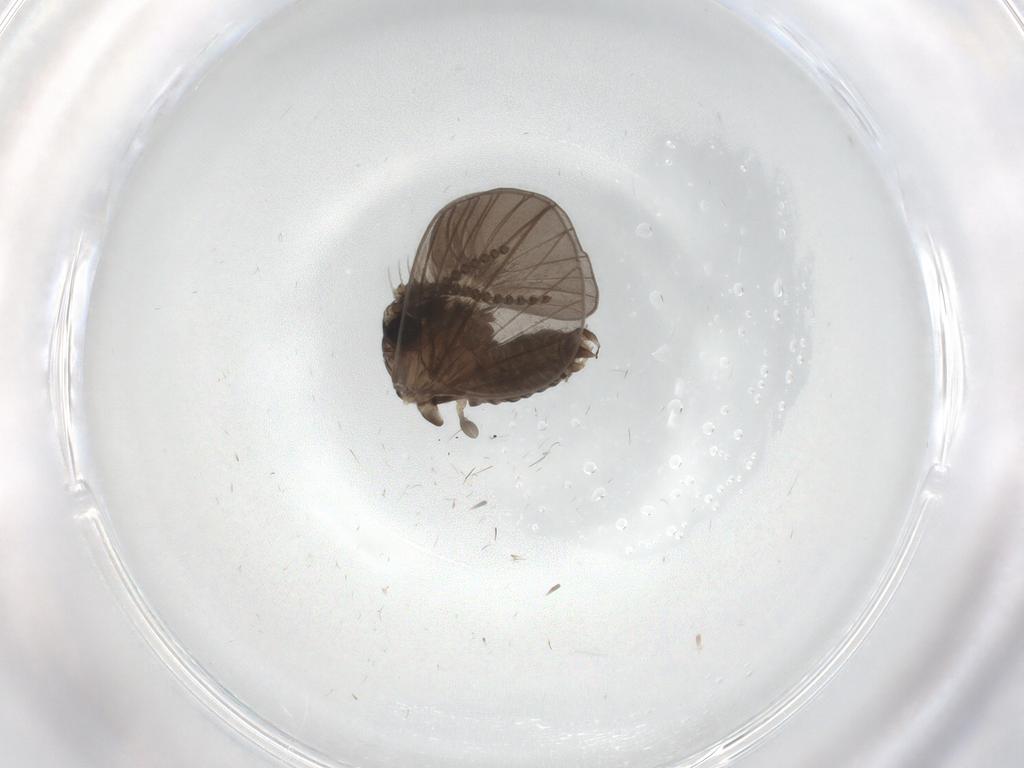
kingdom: Animalia
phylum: Arthropoda
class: Insecta
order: Diptera
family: Psychodidae
